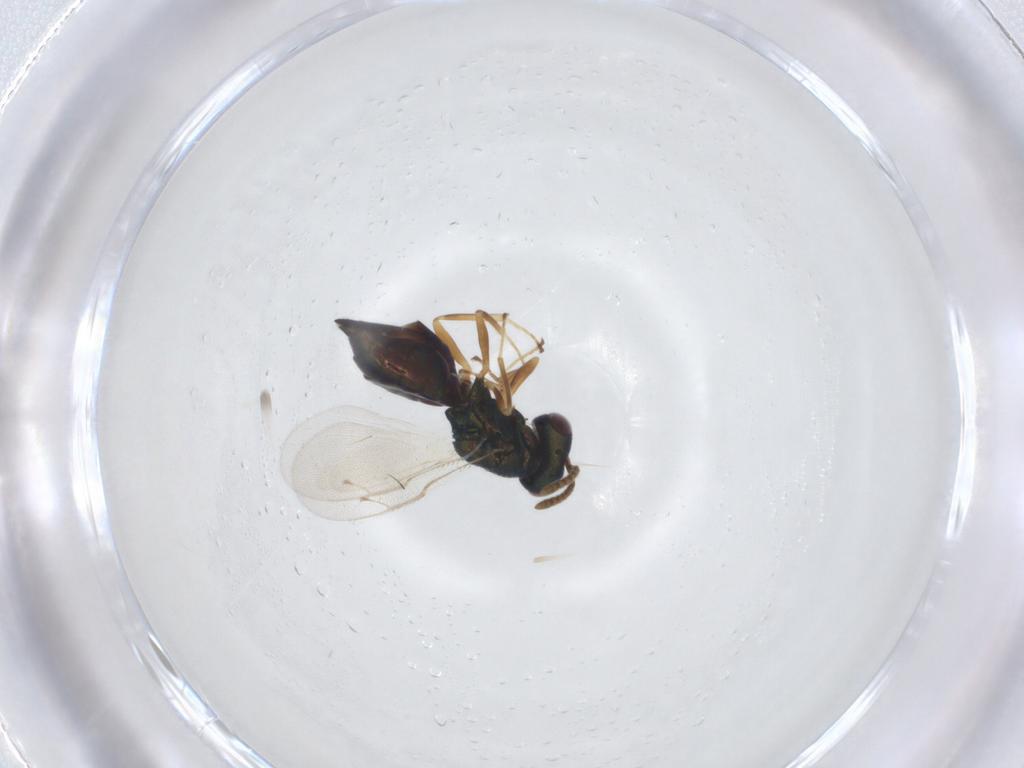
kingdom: Animalia
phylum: Arthropoda
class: Insecta
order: Hymenoptera
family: Pteromalidae
